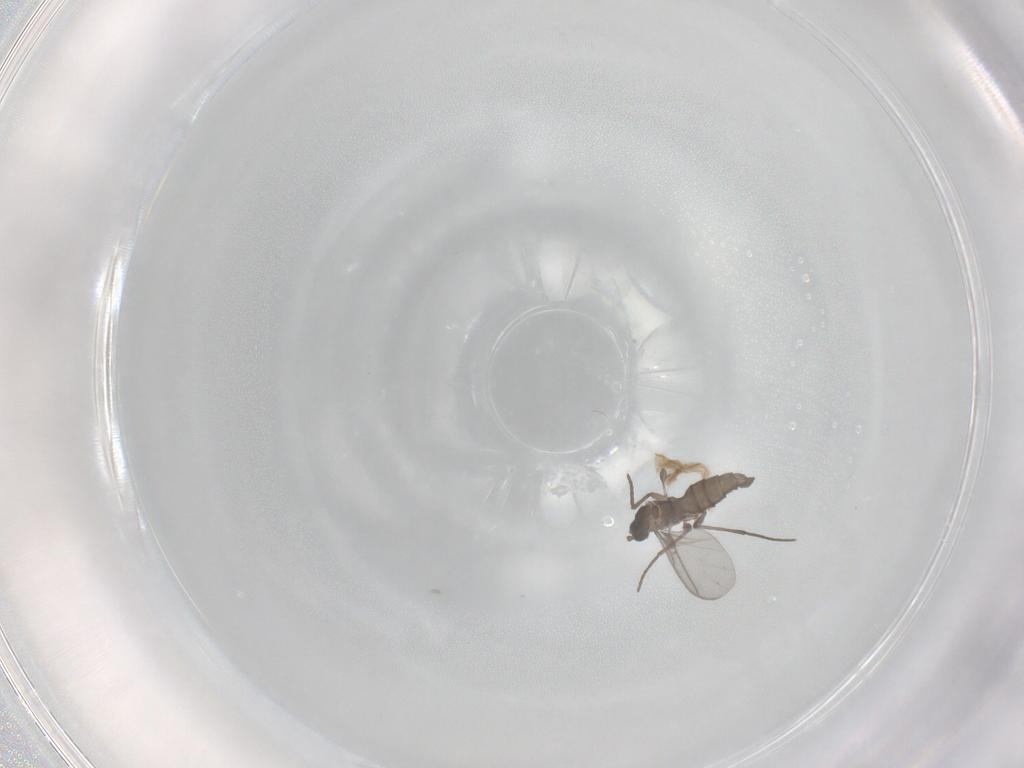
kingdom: Animalia
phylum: Arthropoda
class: Insecta
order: Diptera
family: Sciaridae
